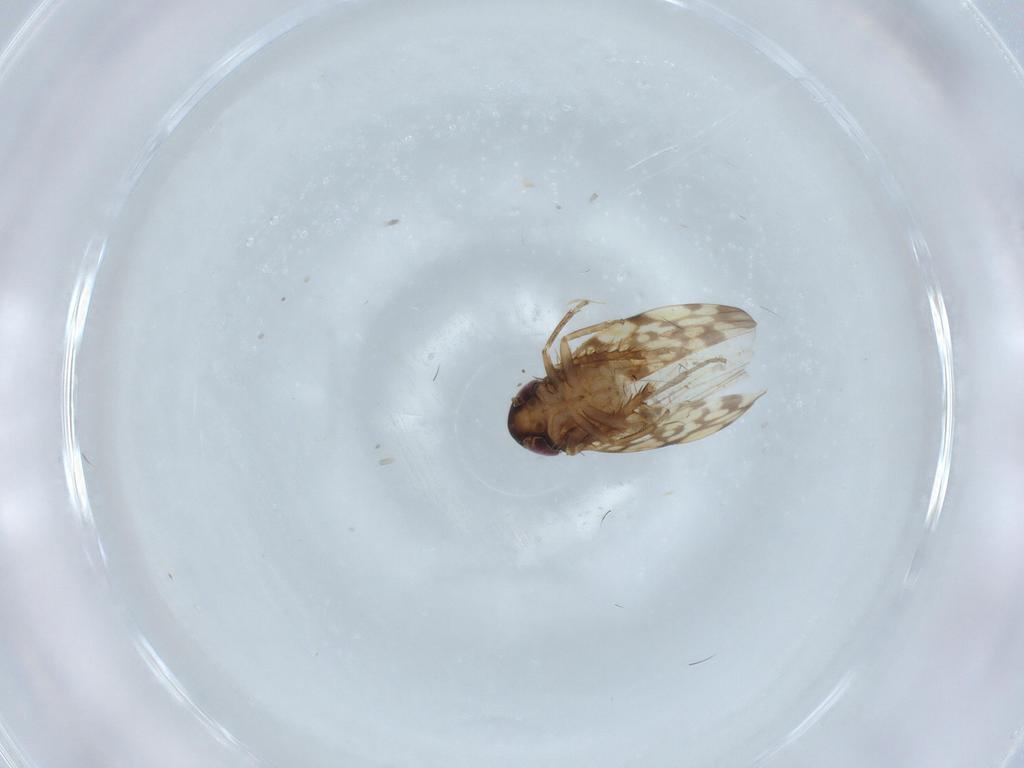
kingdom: Animalia
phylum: Arthropoda
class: Insecta
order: Hemiptera
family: Cicadellidae
